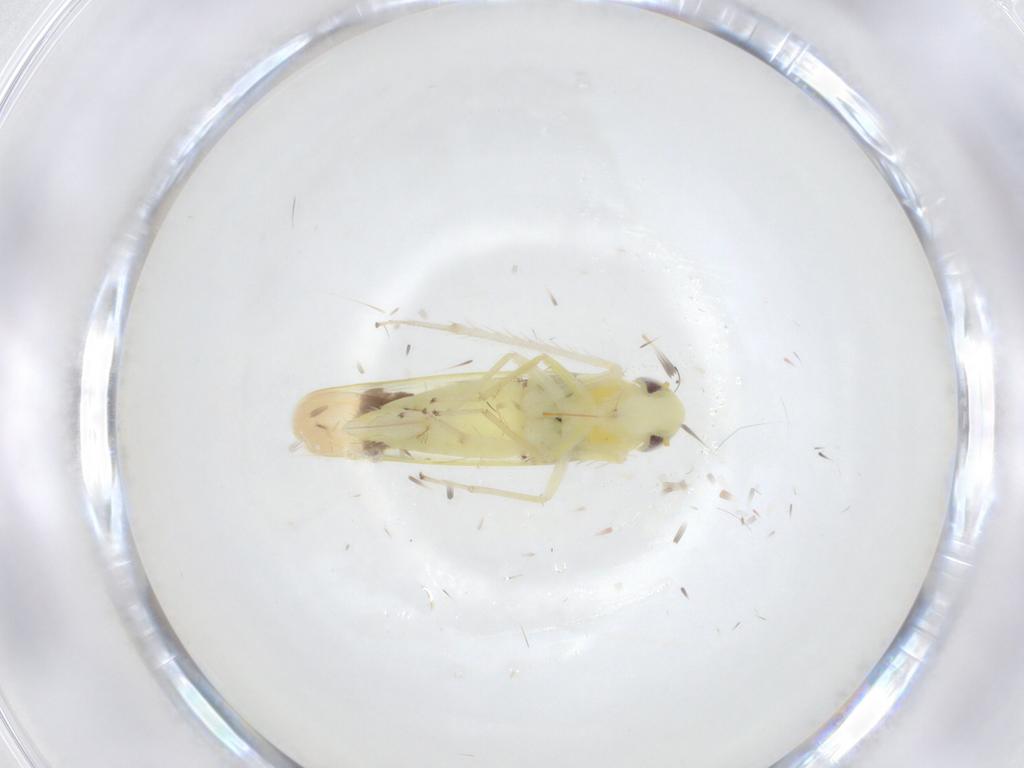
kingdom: Animalia
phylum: Arthropoda
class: Insecta
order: Hemiptera
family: Cicadellidae
